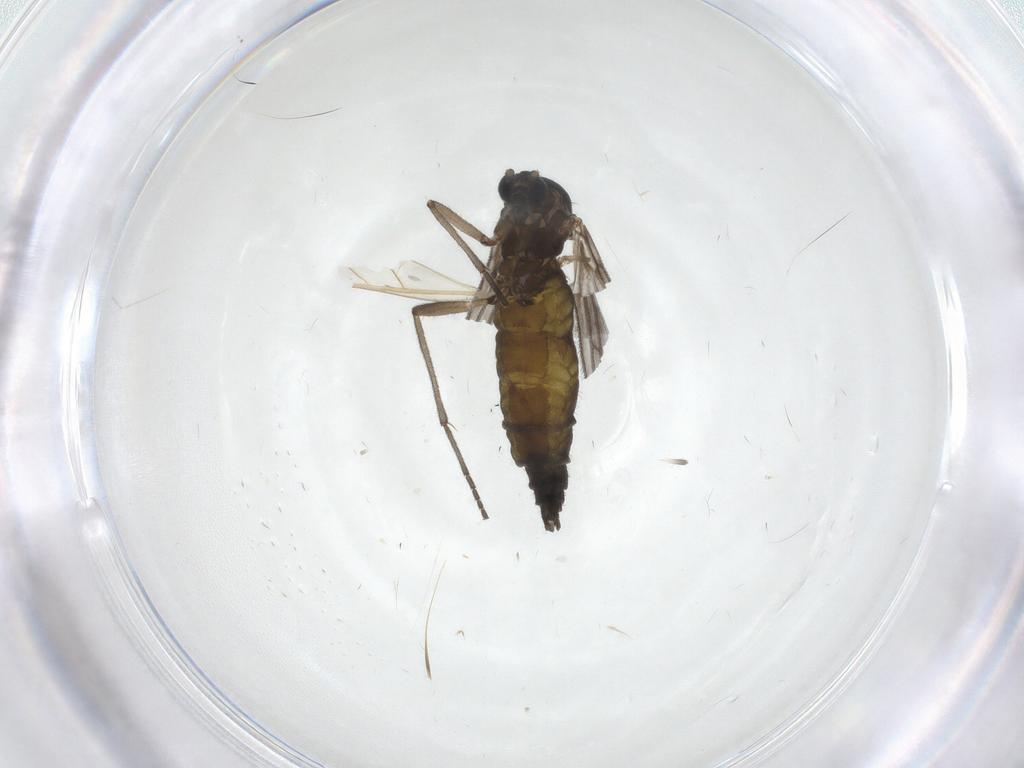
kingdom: Animalia
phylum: Arthropoda
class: Insecta
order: Diptera
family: Sciaridae
